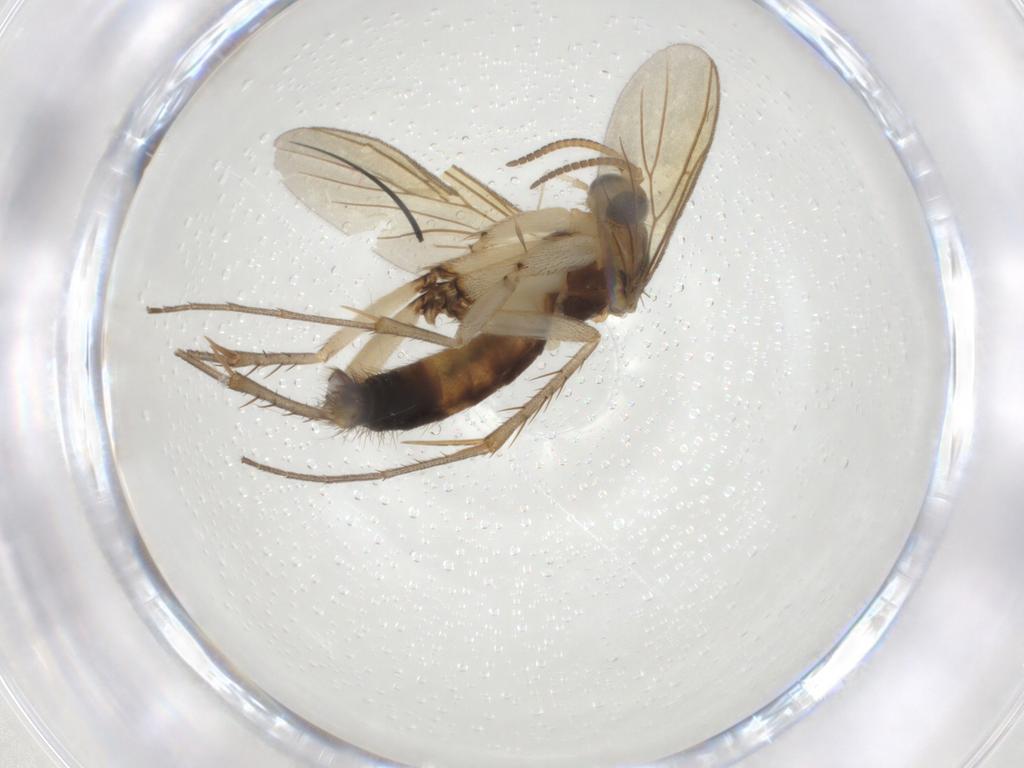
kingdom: Animalia
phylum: Arthropoda
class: Insecta
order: Diptera
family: Mycetophilidae
